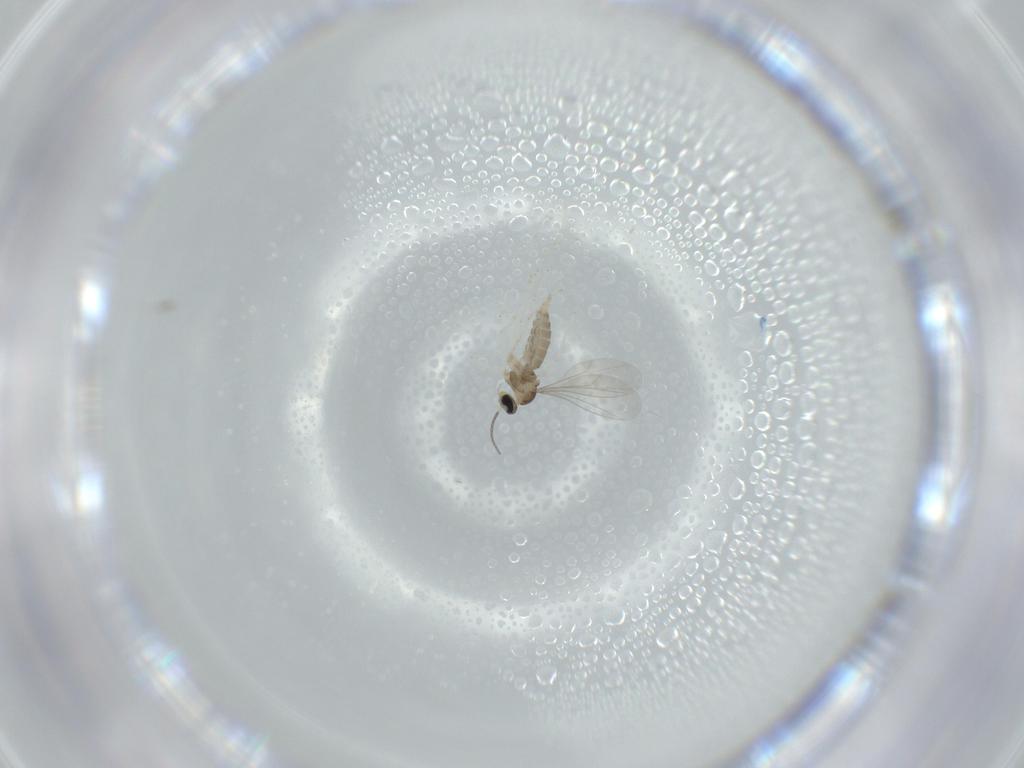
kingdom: Animalia
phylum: Arthropoda
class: Insecta
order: Diptera
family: Cecidomyiidae
